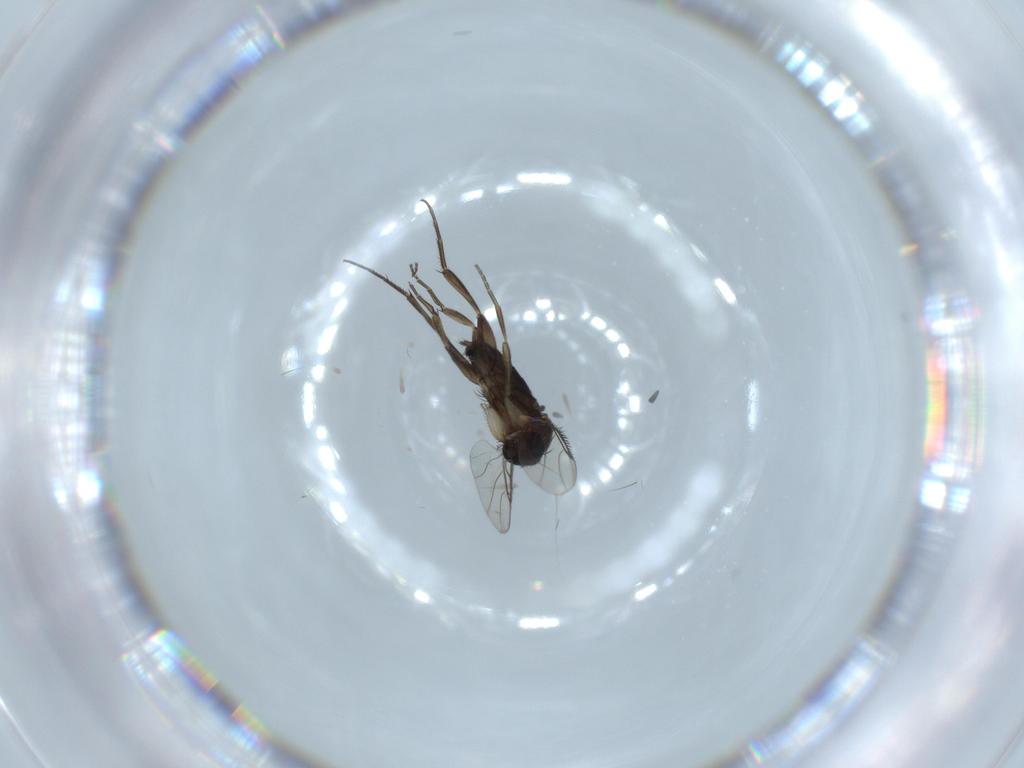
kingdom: Animalia
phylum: Arthropoda
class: Insecta
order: Diptera
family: Phoridae
